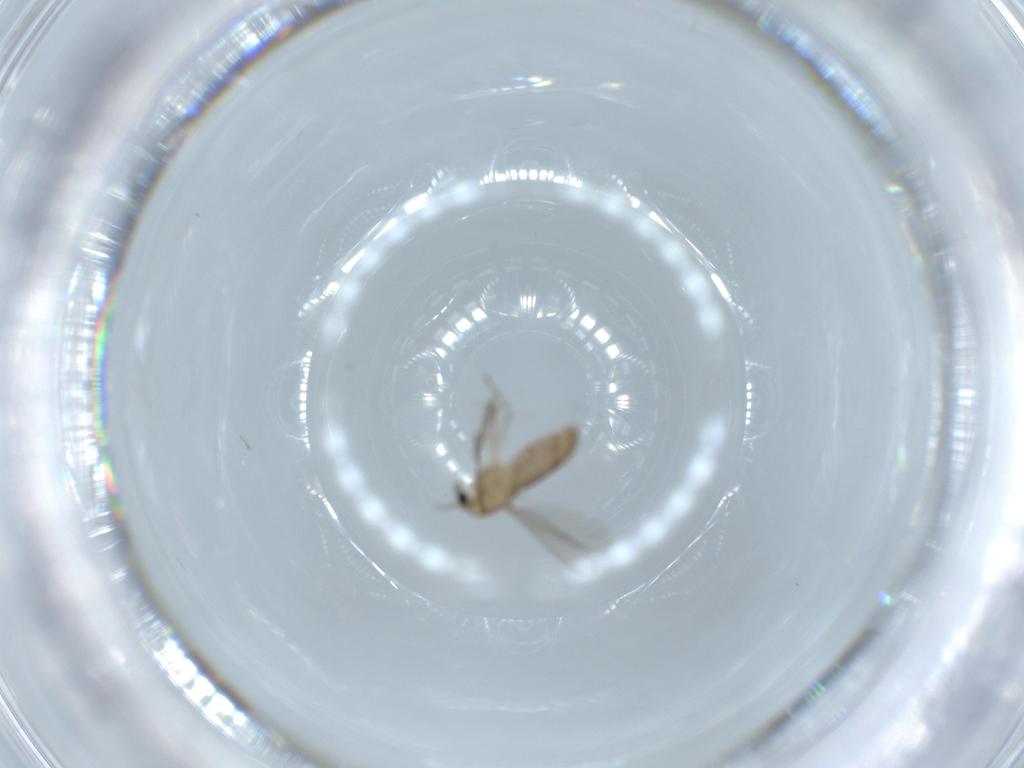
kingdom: Animalia
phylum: Arthropoda
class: Insecta
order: Diptera
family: Chironomidae
